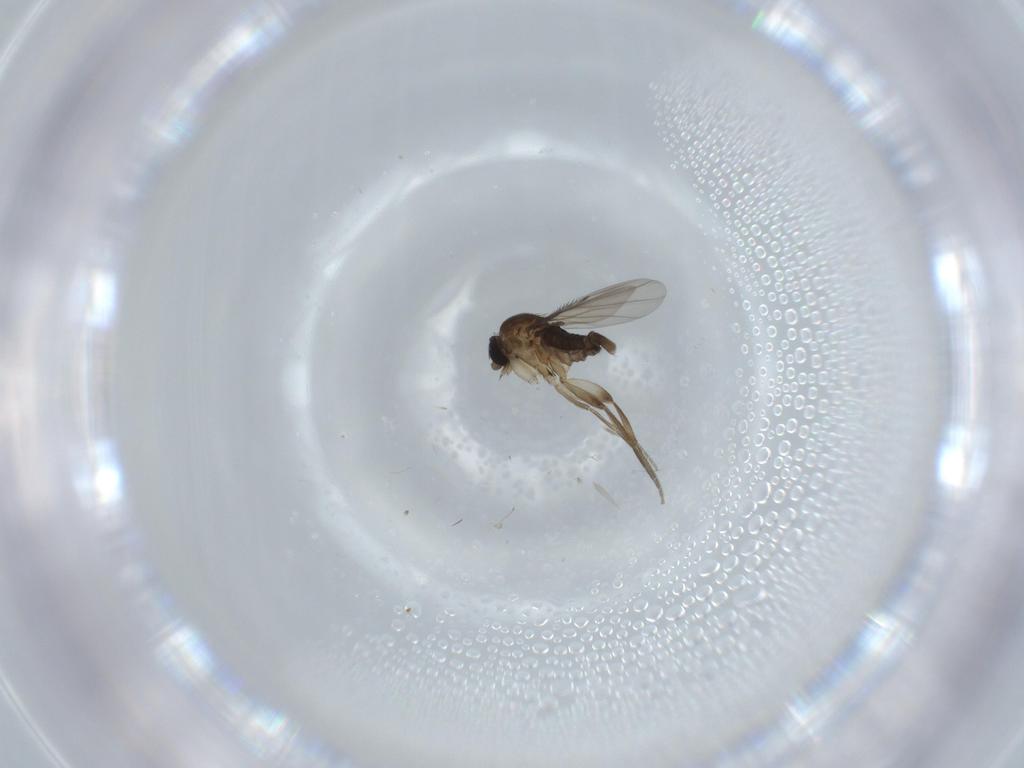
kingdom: Animalia
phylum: Arthropoda
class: Insecta
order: Diptera
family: Phoridae
